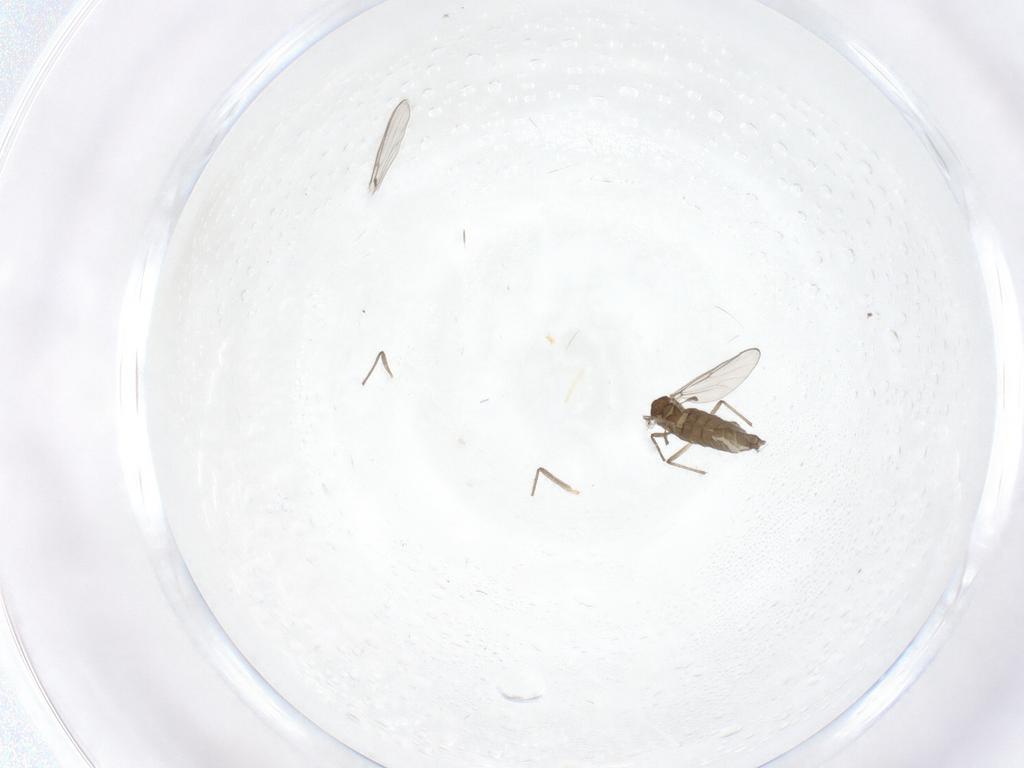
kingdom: Animalia
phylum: Arthropoda
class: Insecta
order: Diptera
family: Chironomidae
